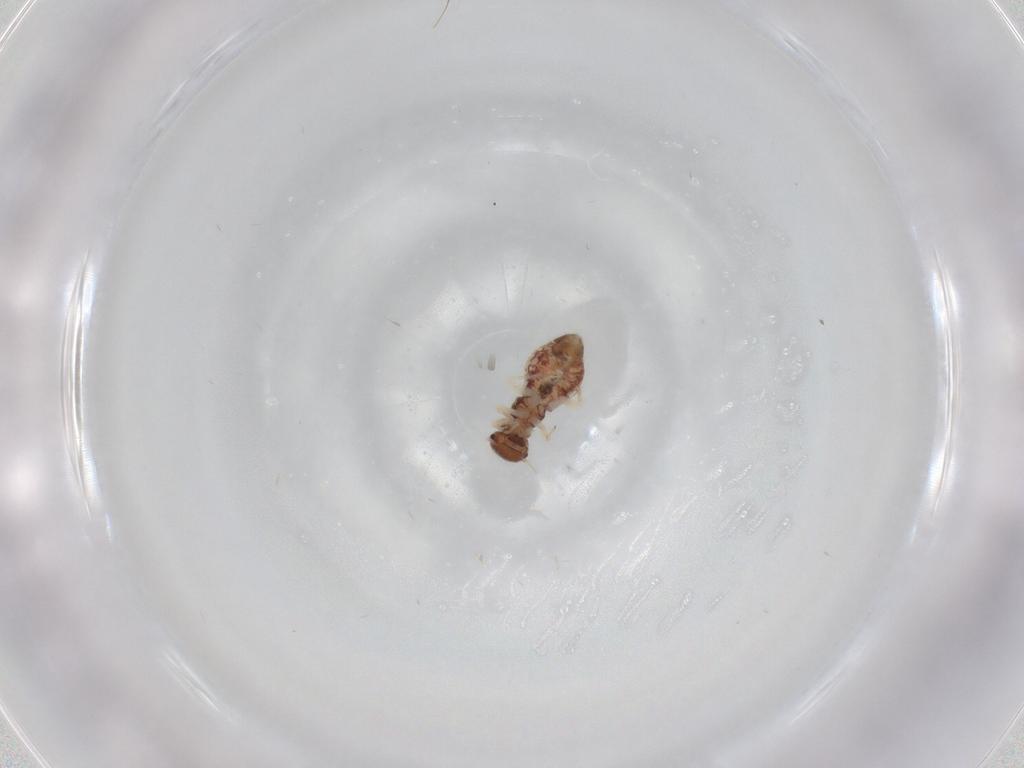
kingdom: Animalia
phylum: Arthropoda
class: Insecta
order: Psocodea
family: Archipsocidae
